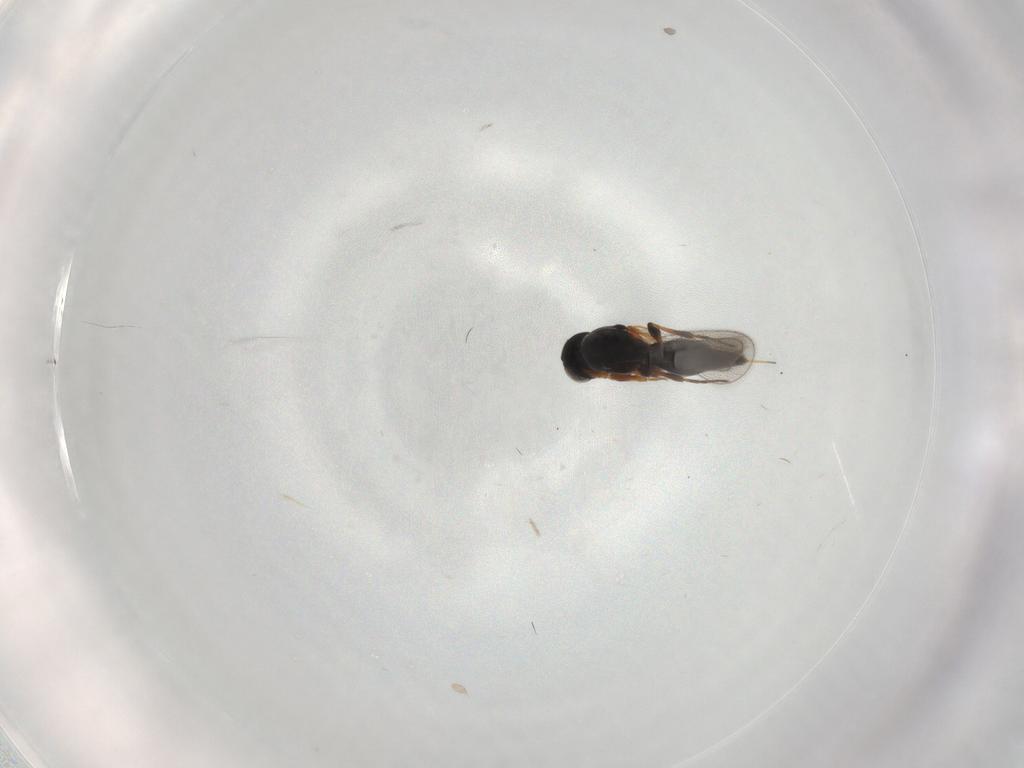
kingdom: Animalia
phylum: Arthropoda
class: Insecta
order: Hymenoptera
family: Platygastridae
